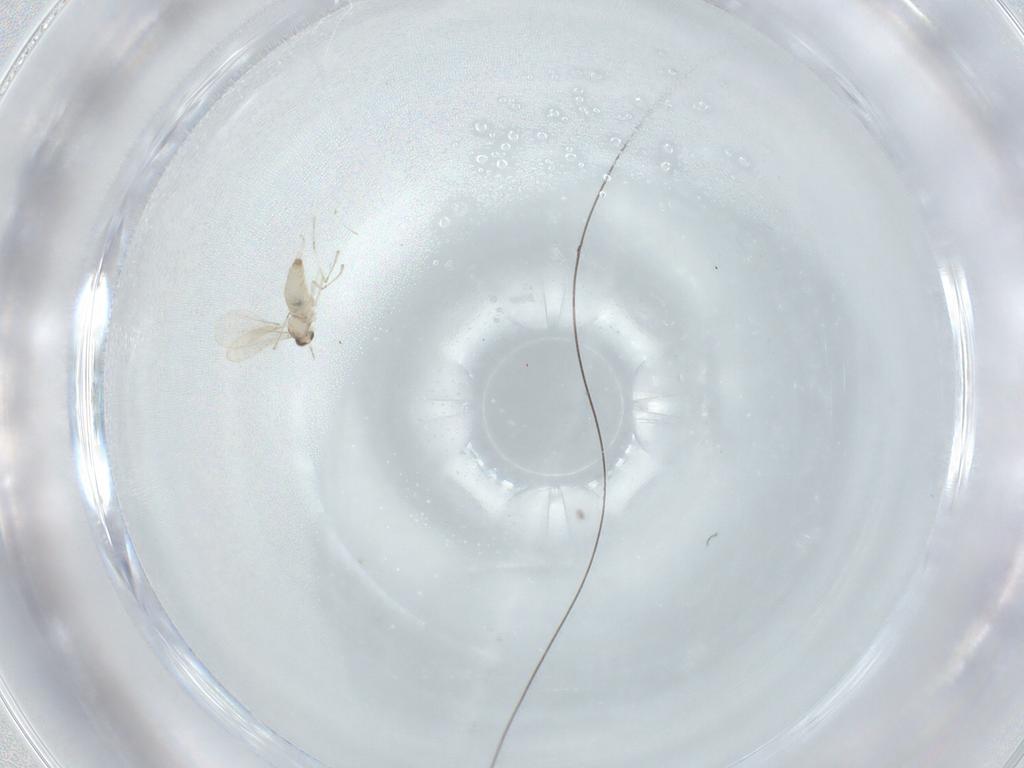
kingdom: Animalia
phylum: Arthropoda
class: Insecta
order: Diptera
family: Cecidomyiidae
